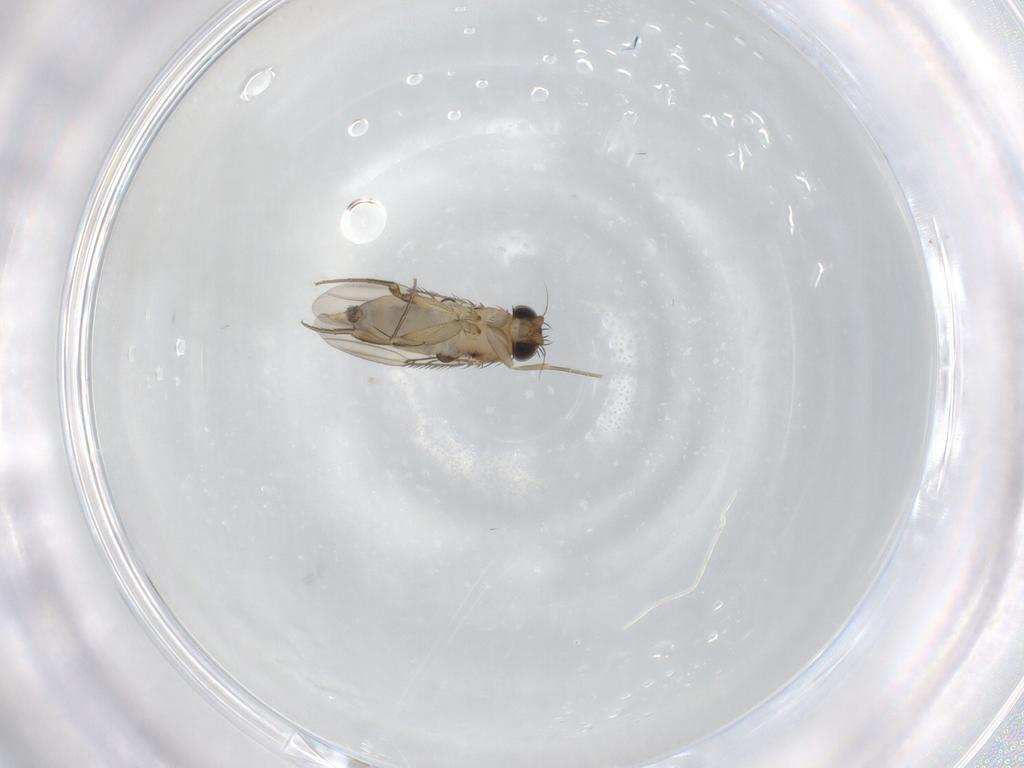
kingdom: Animalia
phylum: Arthropoda
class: Insecta
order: Diptera
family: Phoridae
